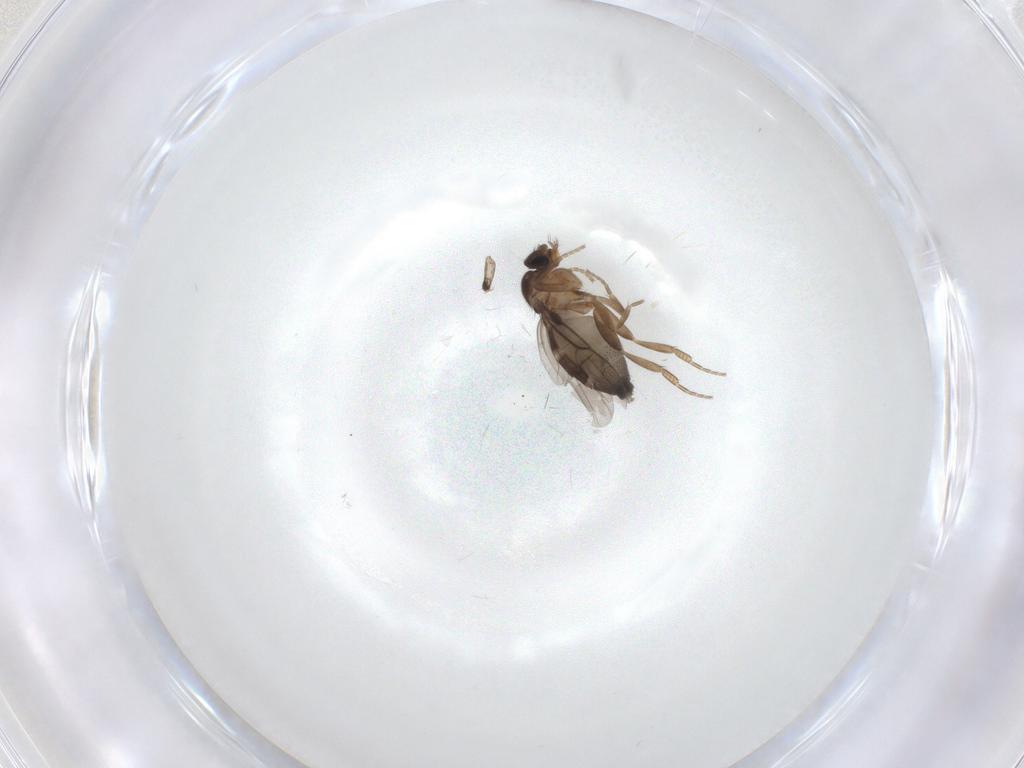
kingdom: Animalia
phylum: Arthropoda
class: Insecta
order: Diptera
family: Phoridae
